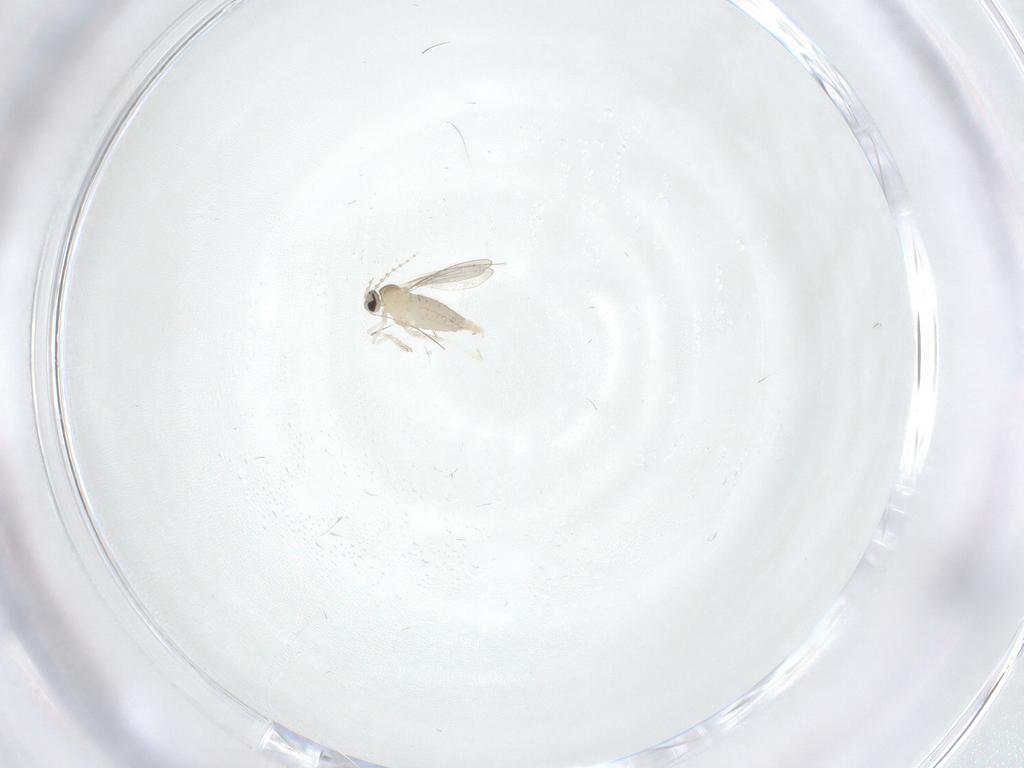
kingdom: Animalia
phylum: Arthropoda
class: Insecta
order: Diptera
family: Cecidomyiidae
